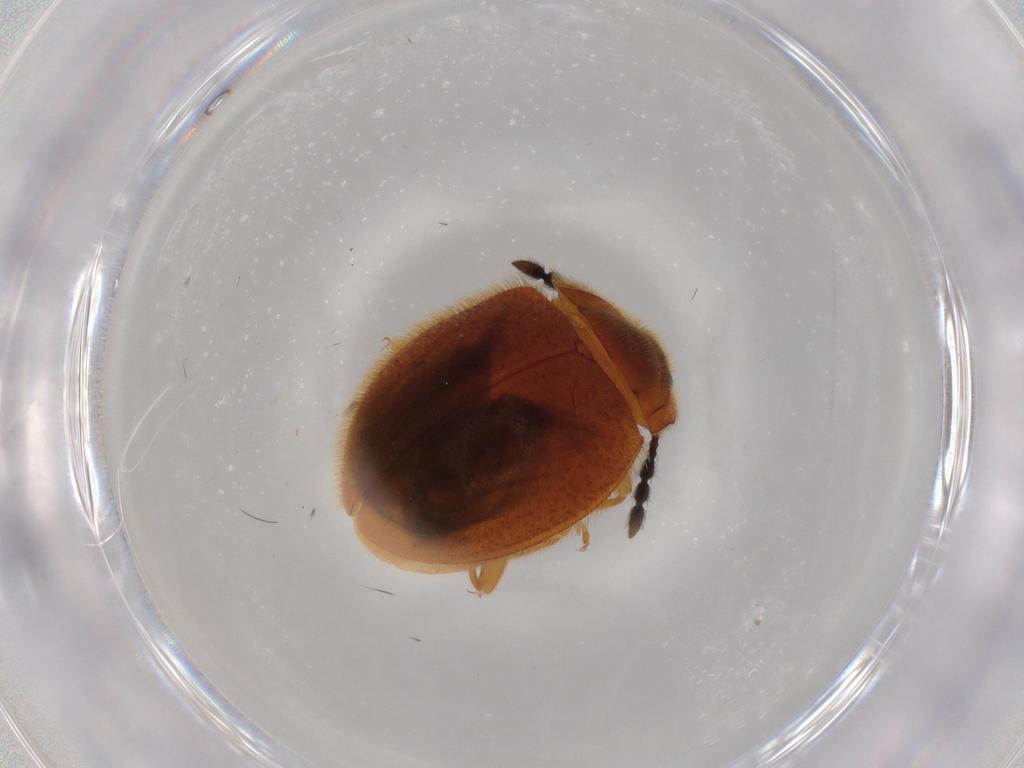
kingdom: Animalia
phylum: Arthropoda
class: Insecta
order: Coleoptera
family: Endomychidae
